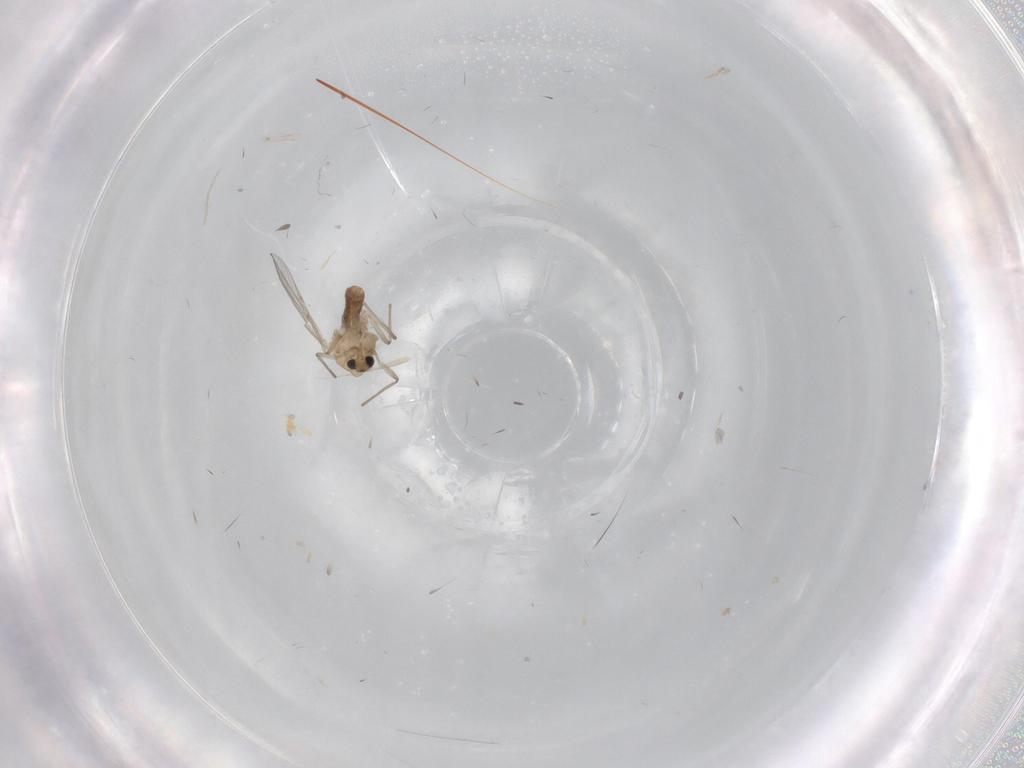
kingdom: Animalia
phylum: Arthropoda
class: Insecta
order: Diptera
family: Chironomidae
